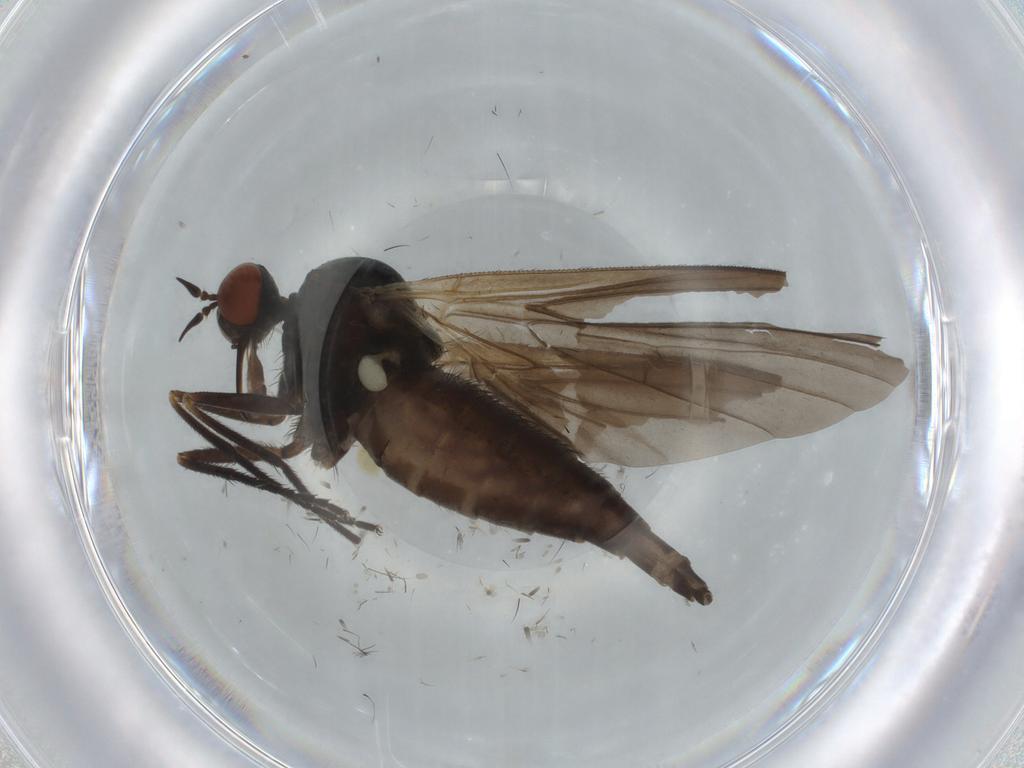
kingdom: Animalia
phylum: Arthropoda
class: Insecta
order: Diptera
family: Empididae
